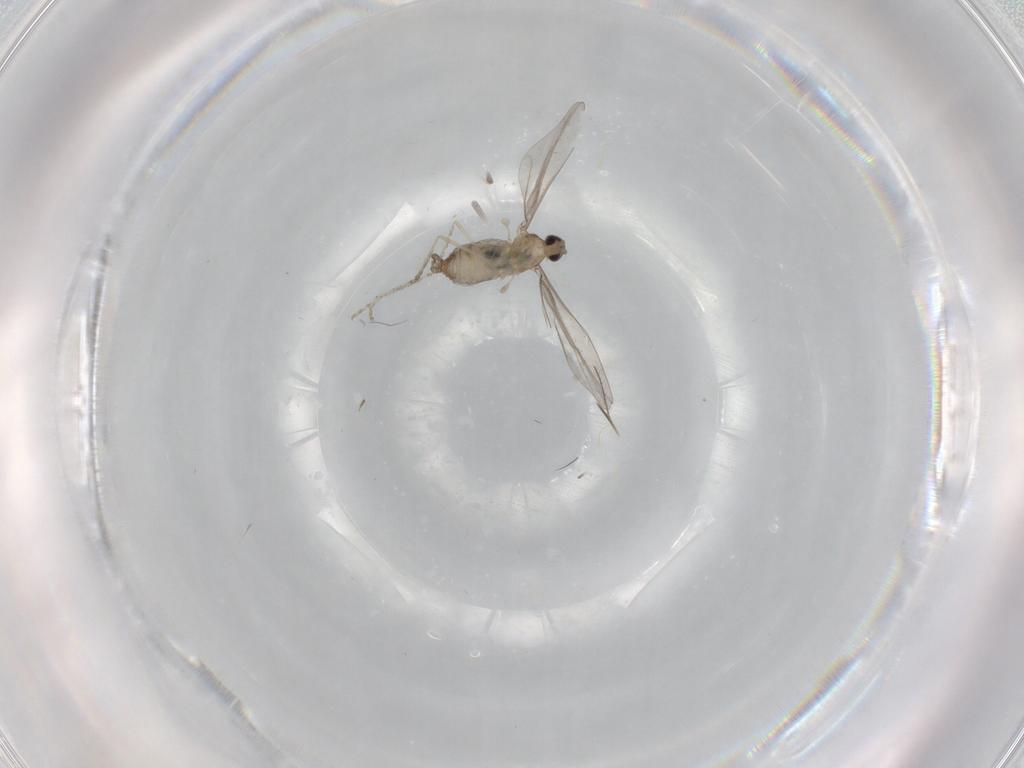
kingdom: Animalia
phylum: Arthropoda
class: Insecta
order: Diptera
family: Cecidomyiidae
